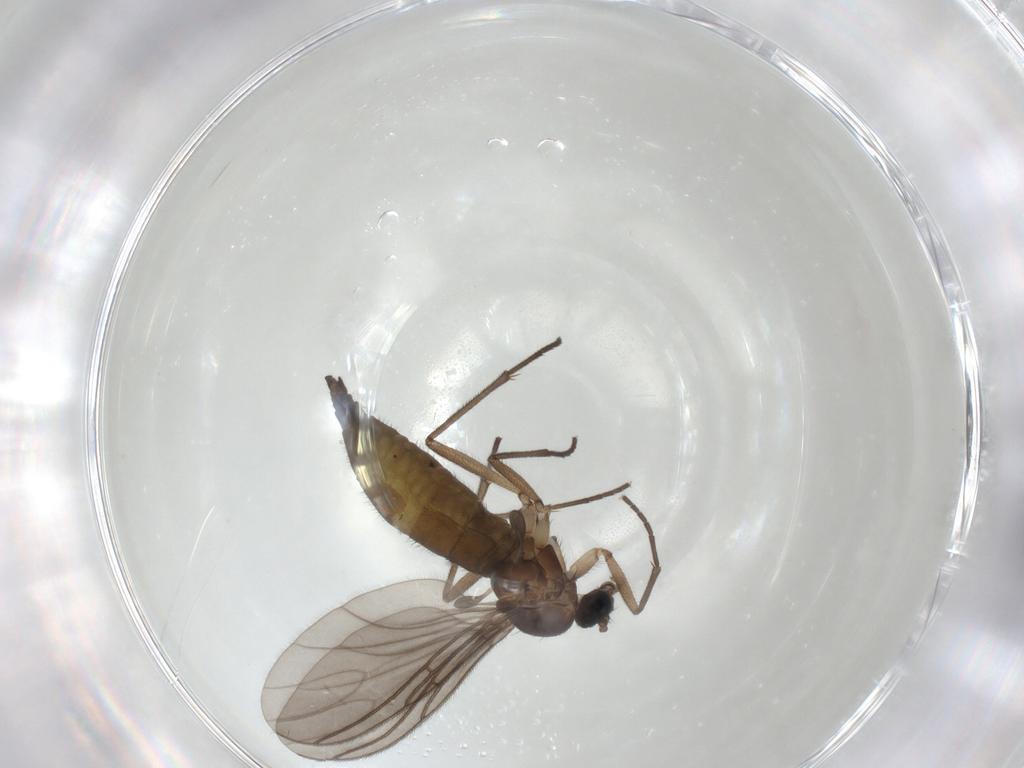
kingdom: Animalia
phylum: Arthropoda
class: Insecta
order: Diptera
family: Sciaridae
